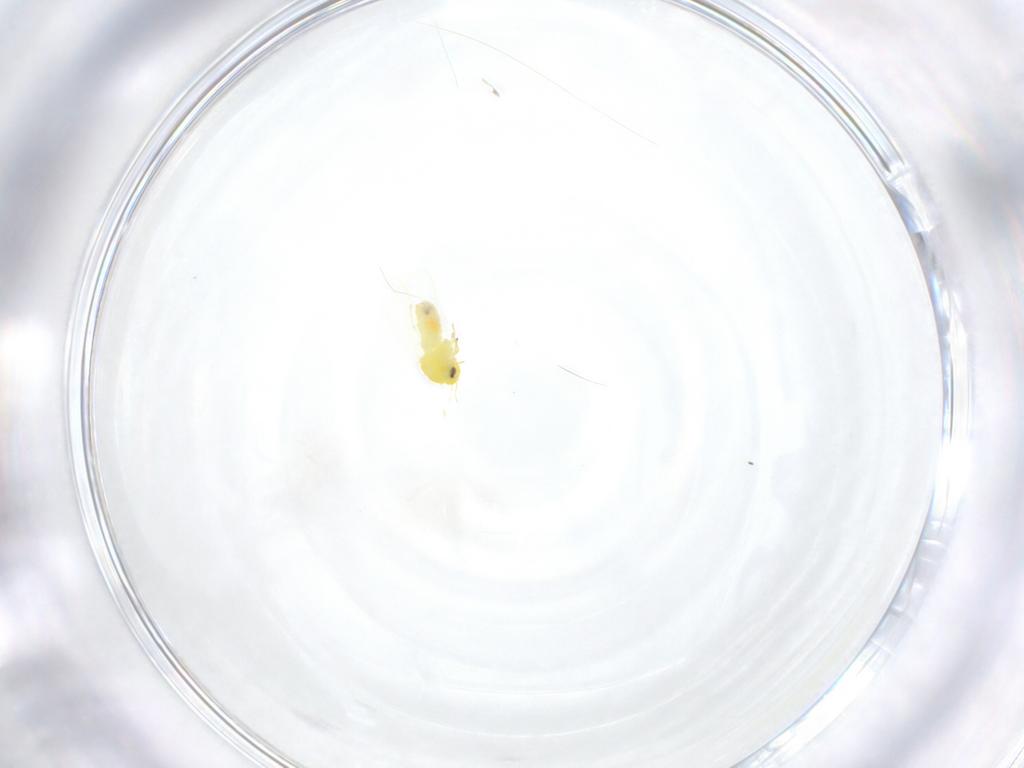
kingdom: Animalia
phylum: Arthropoda
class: Insecta
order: Hemiptera
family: Aleyrodidae
